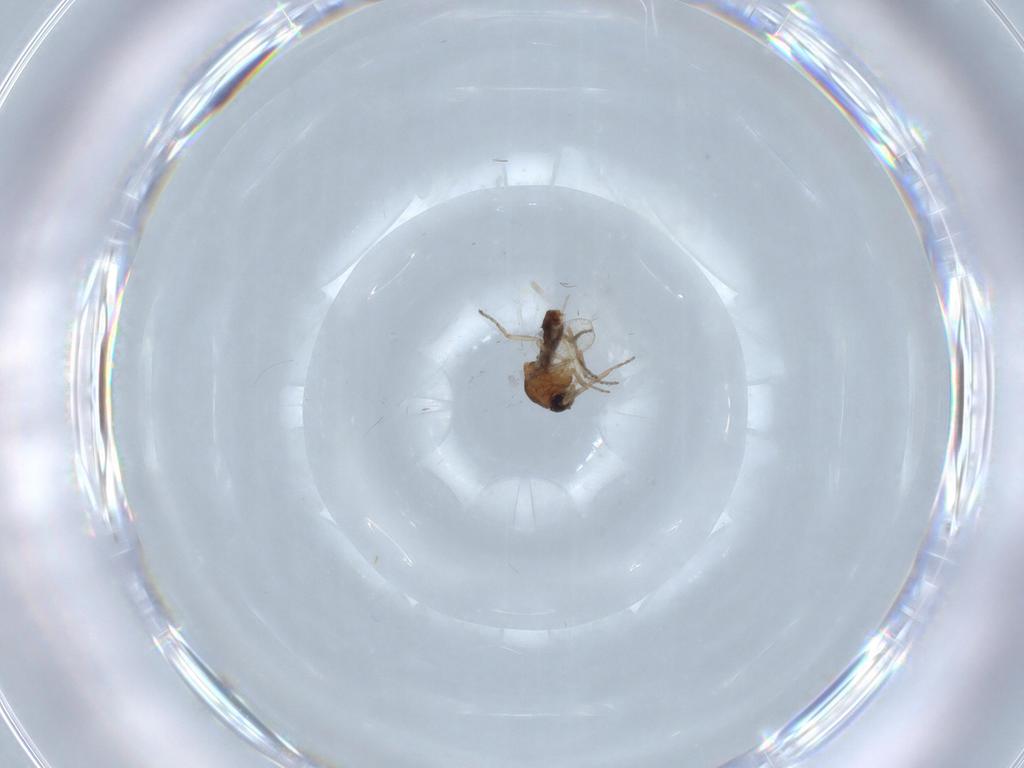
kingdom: Animalia
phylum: Arthropoda
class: Insecta
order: Diptera
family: Ceratopogonidae
